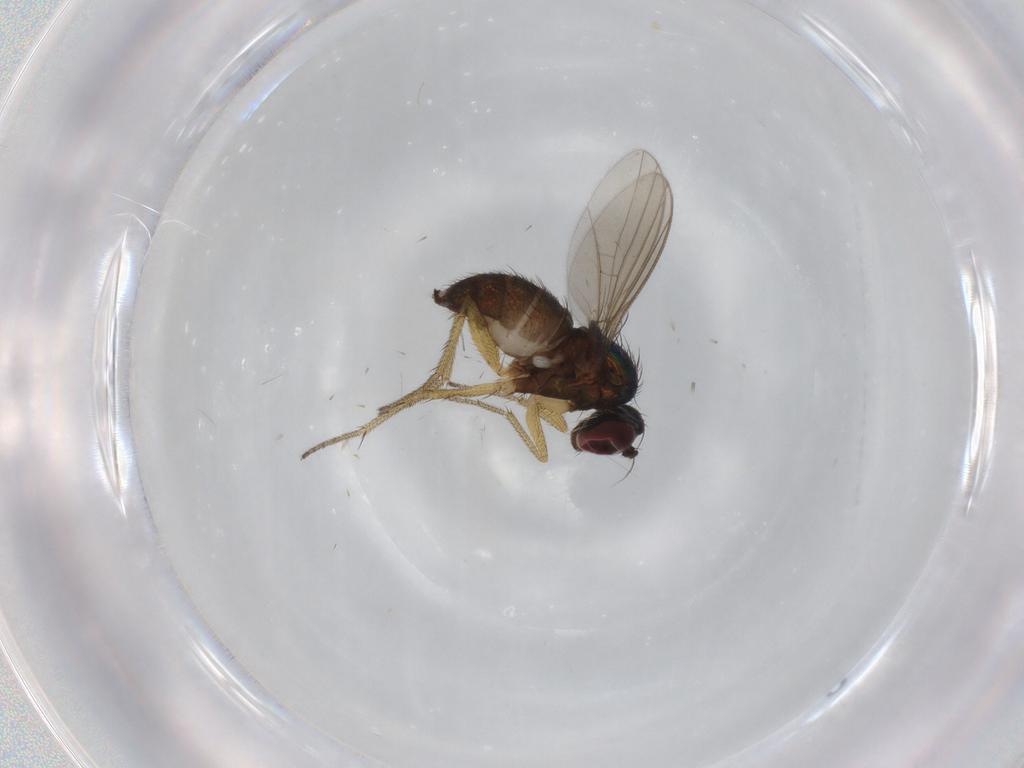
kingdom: Animalia
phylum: Arthropoda
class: Insecta
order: Diptera
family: Dolichopodidae
